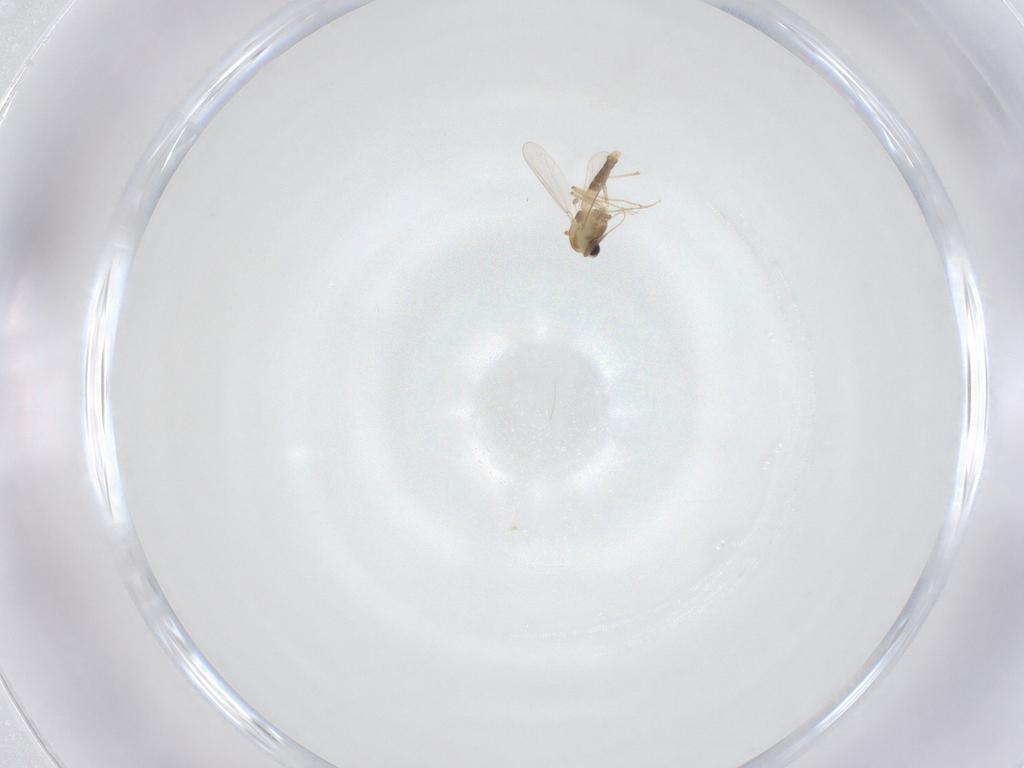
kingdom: Animalia
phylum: Arthropoda
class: Insecta
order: Diptera
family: Chironomidae
